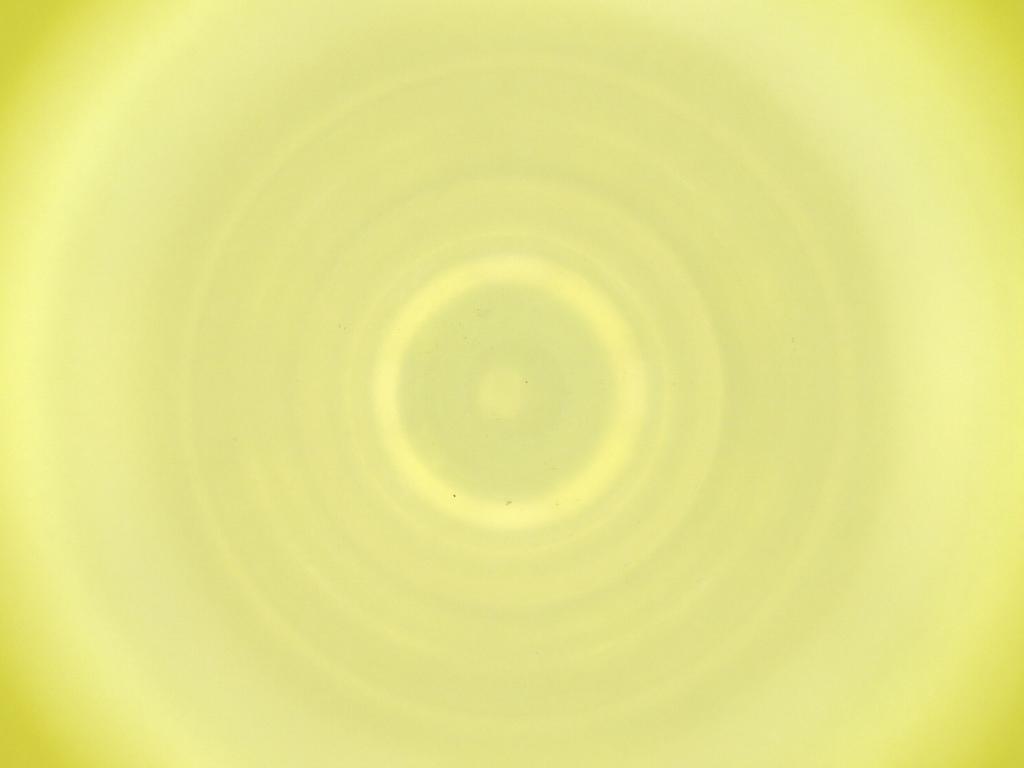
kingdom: Animalia
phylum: Arthropoda
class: Insecta
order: Diptera
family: Cecidomyiidae
